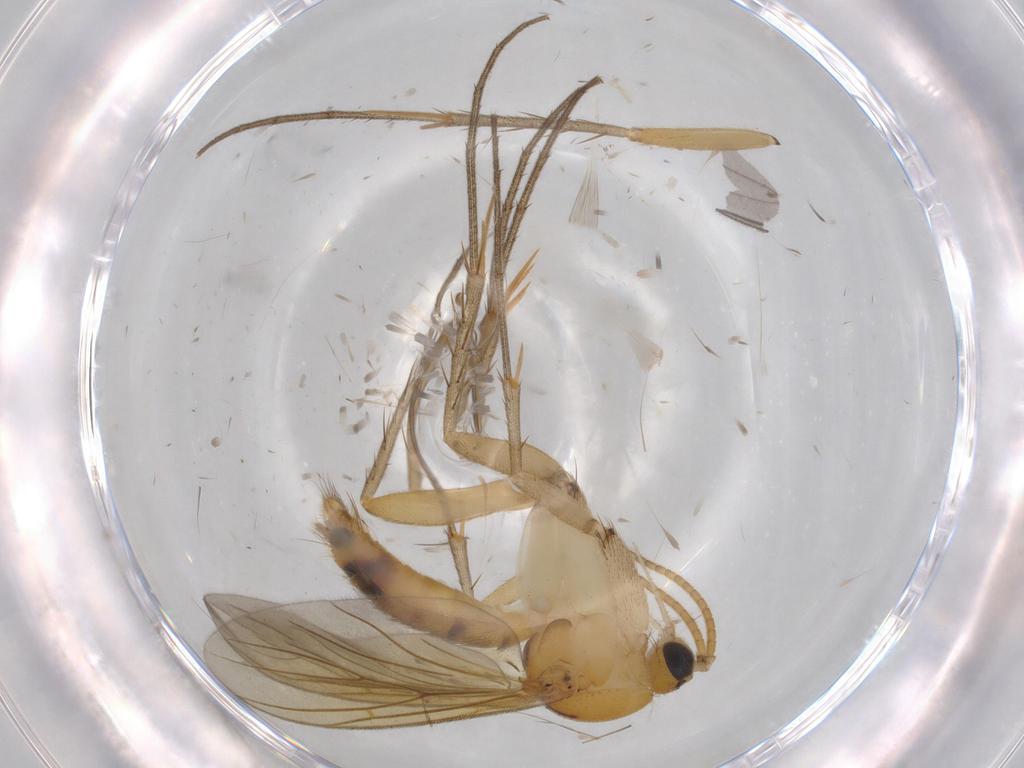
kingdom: Animalia
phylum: Arthropoda
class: Insecta
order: Diptera
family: Mycetophilidae
